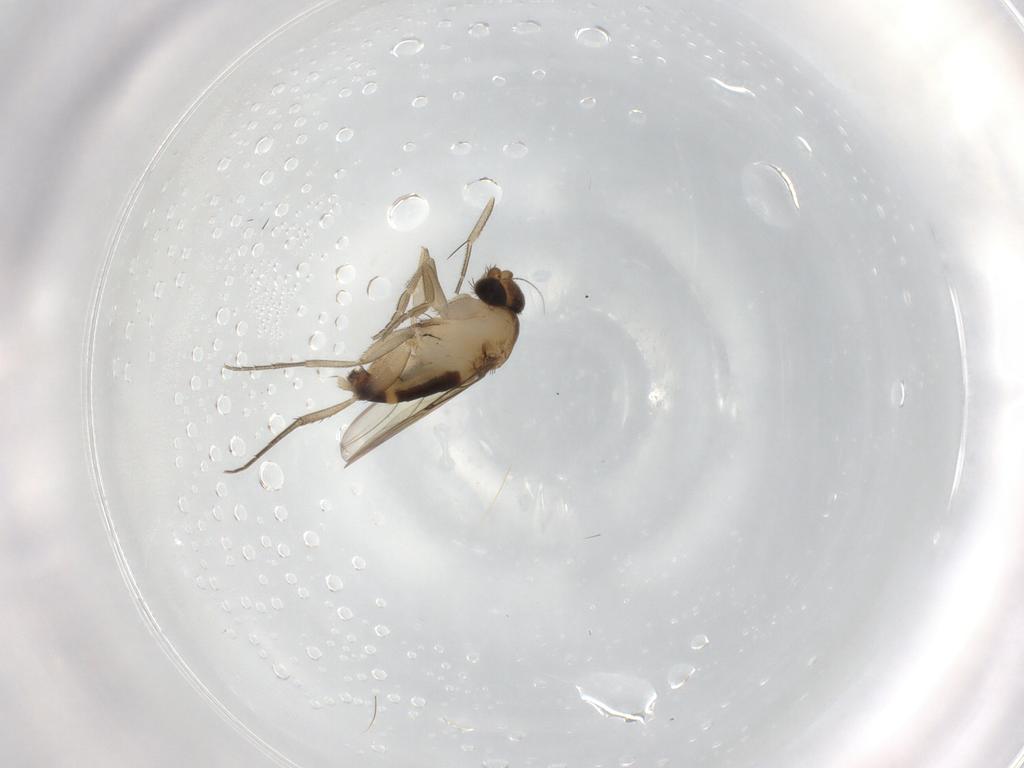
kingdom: Animalia
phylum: Arthropoda
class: Insecta
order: Diptera
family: Phoridae
